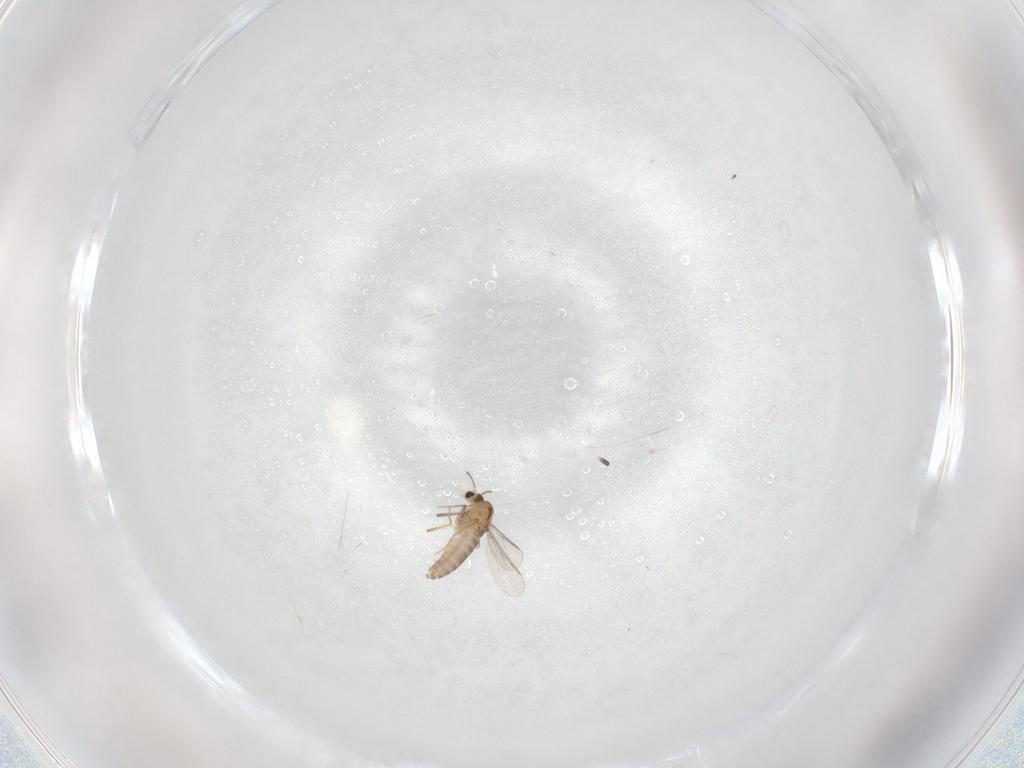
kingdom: Animalia
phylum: Arthropoda
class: Insecta
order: Diptera
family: Chironomidae
